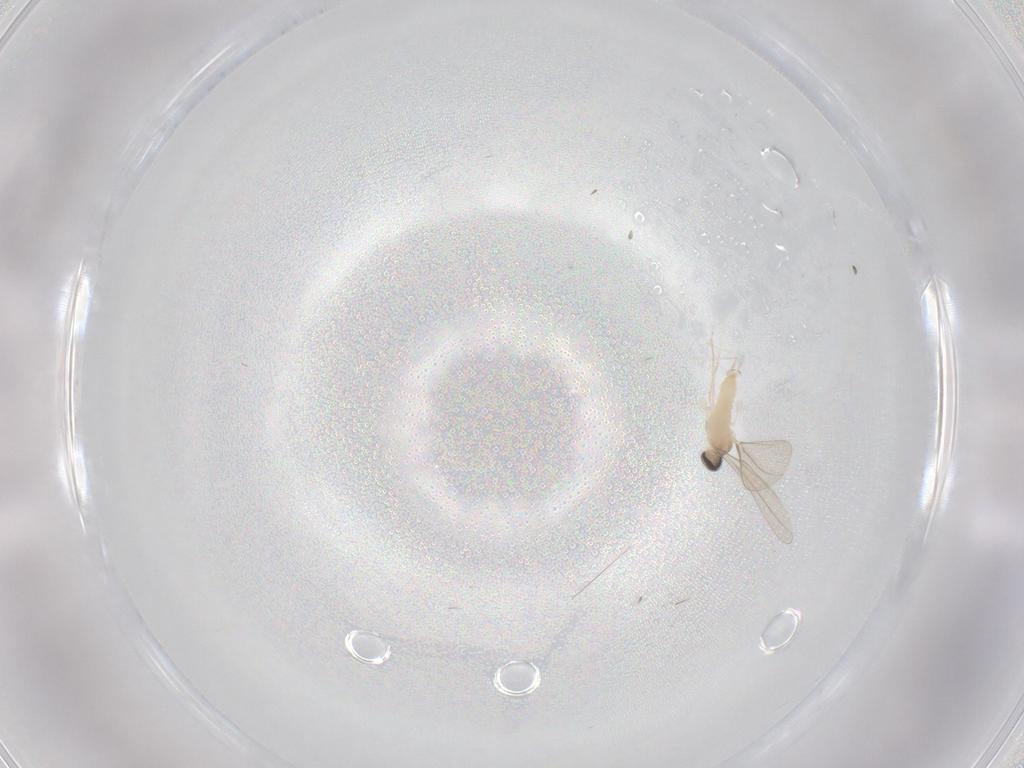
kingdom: Animalia
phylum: Arthropoda
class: Insecta
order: Diptera
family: Cecidomyiidae
